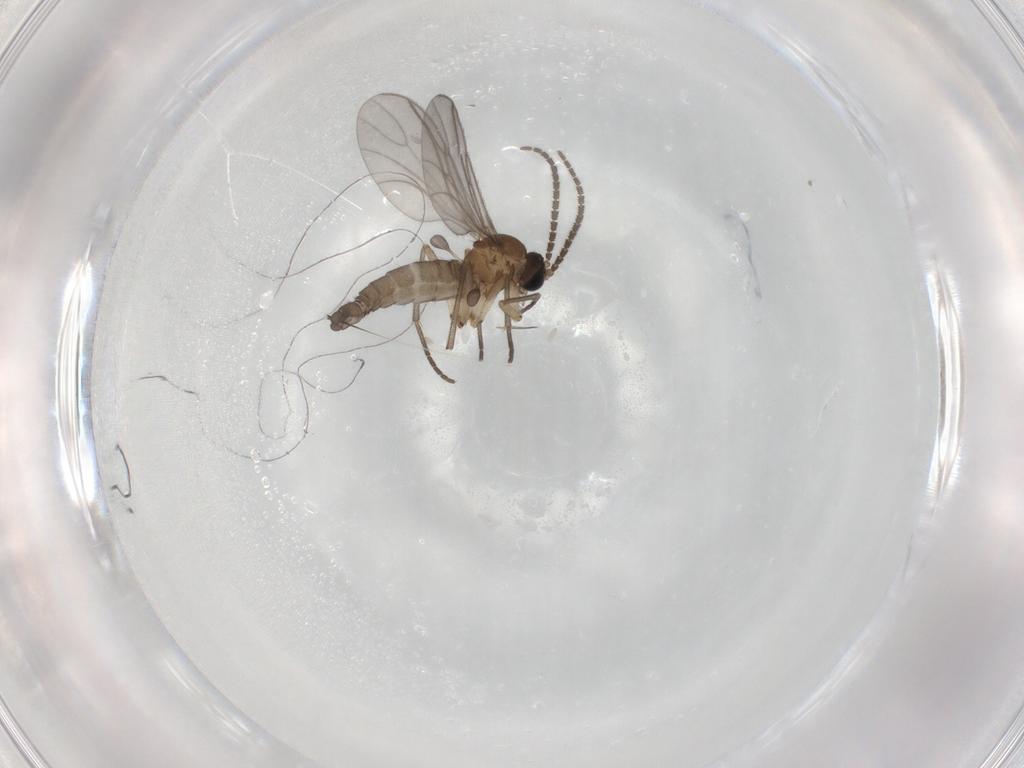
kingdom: Animalia
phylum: Arthropoda
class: Insecta
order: Diptera
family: Sciaridae
